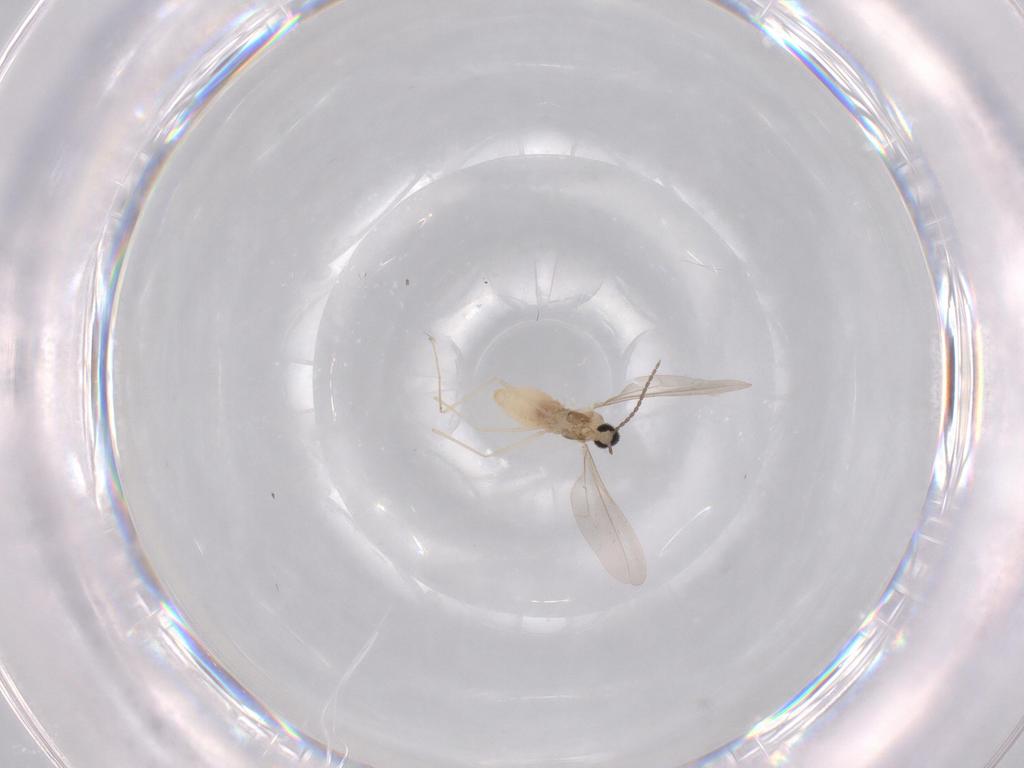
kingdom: Animalia
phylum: Arthropoda
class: Insecta
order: Diptera
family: Cecidomyiidae
